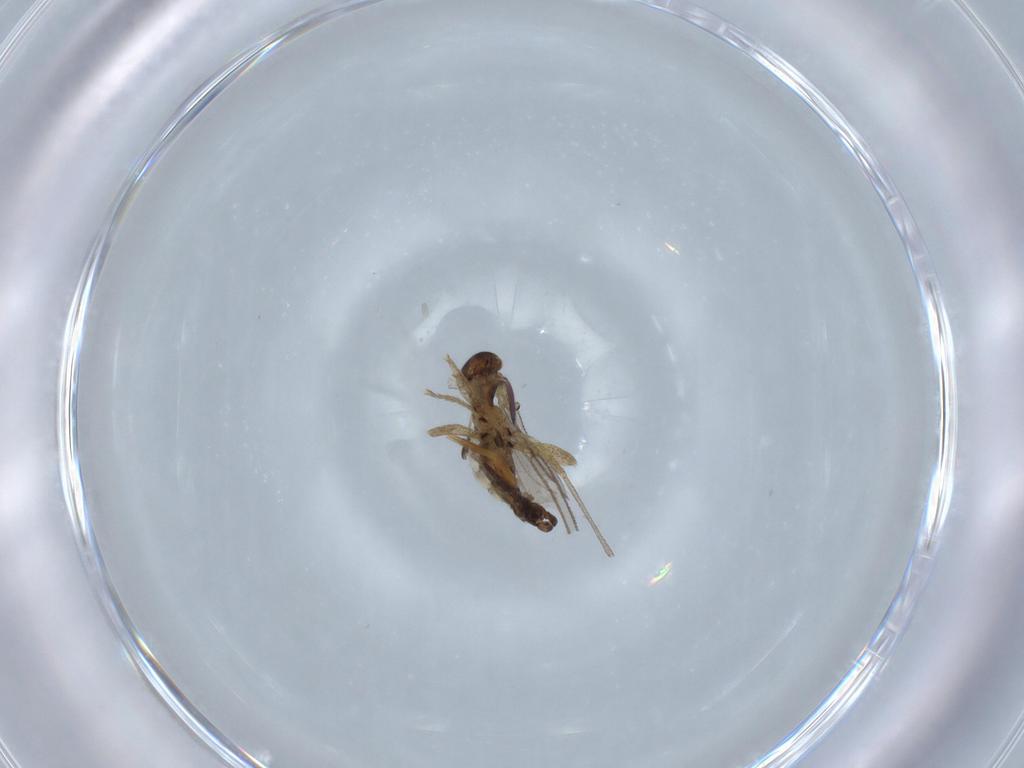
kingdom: Animalia
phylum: Arthropoda
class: Insecta
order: Diptera
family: Sciaridae
